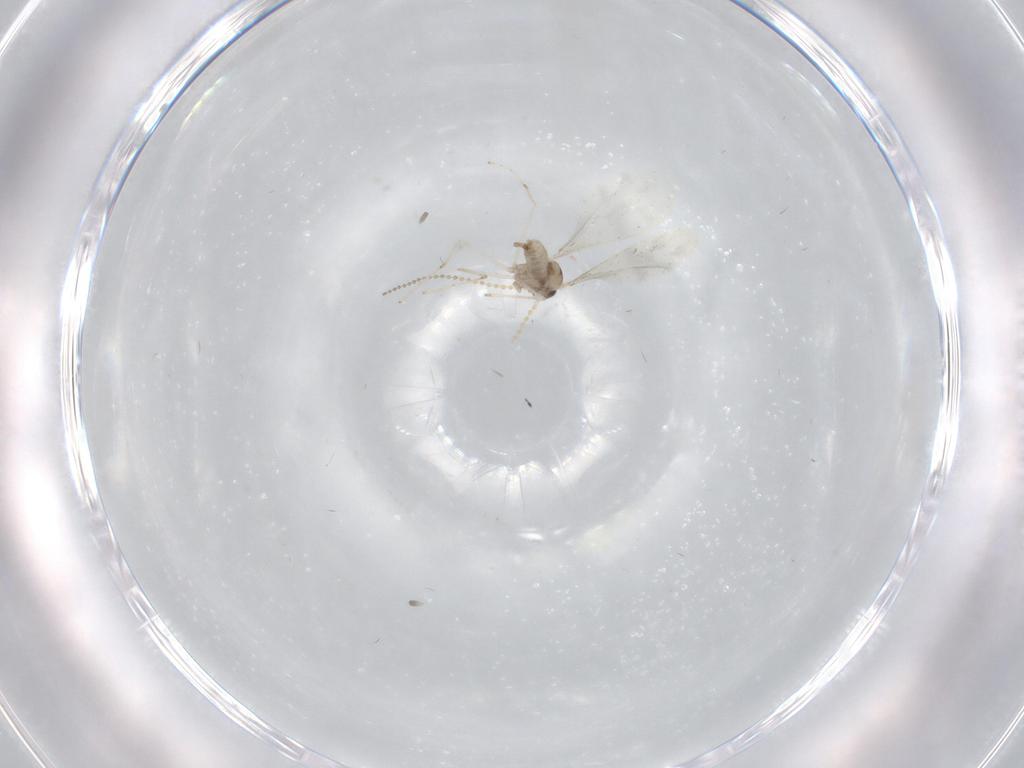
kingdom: Animalia
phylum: Arthropoda
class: Insecta
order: Diptera
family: Cecidomyiidae
